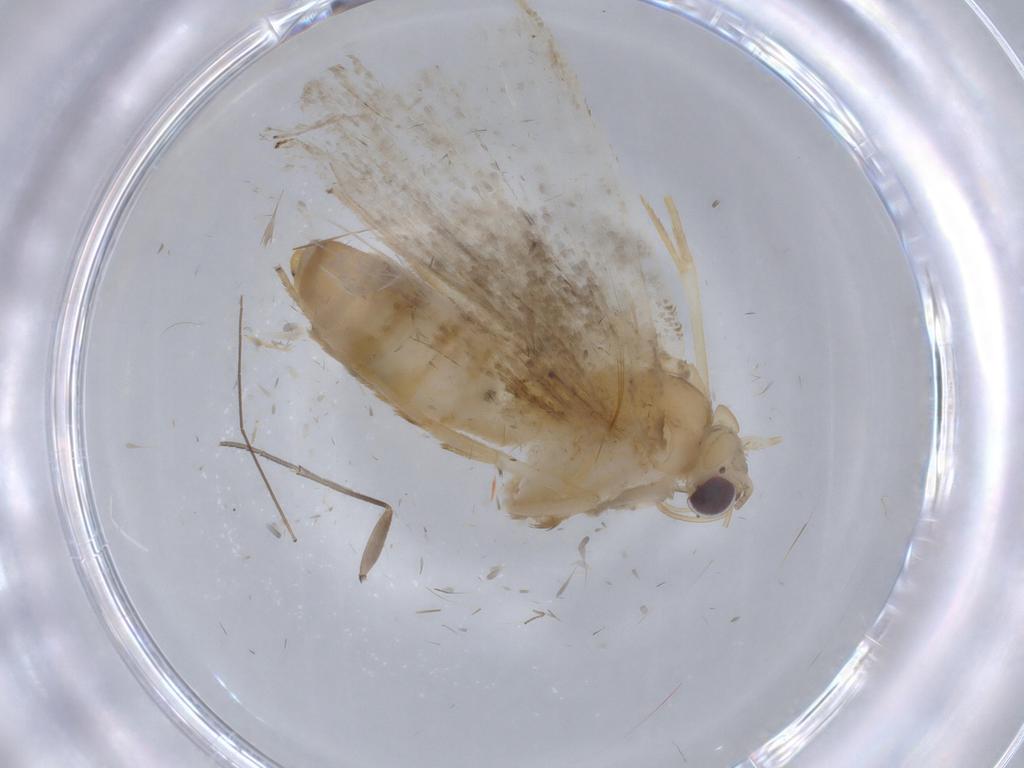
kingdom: Animalia
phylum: Arthropoda
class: Insecta
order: Lepidoptera
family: Erebidae
